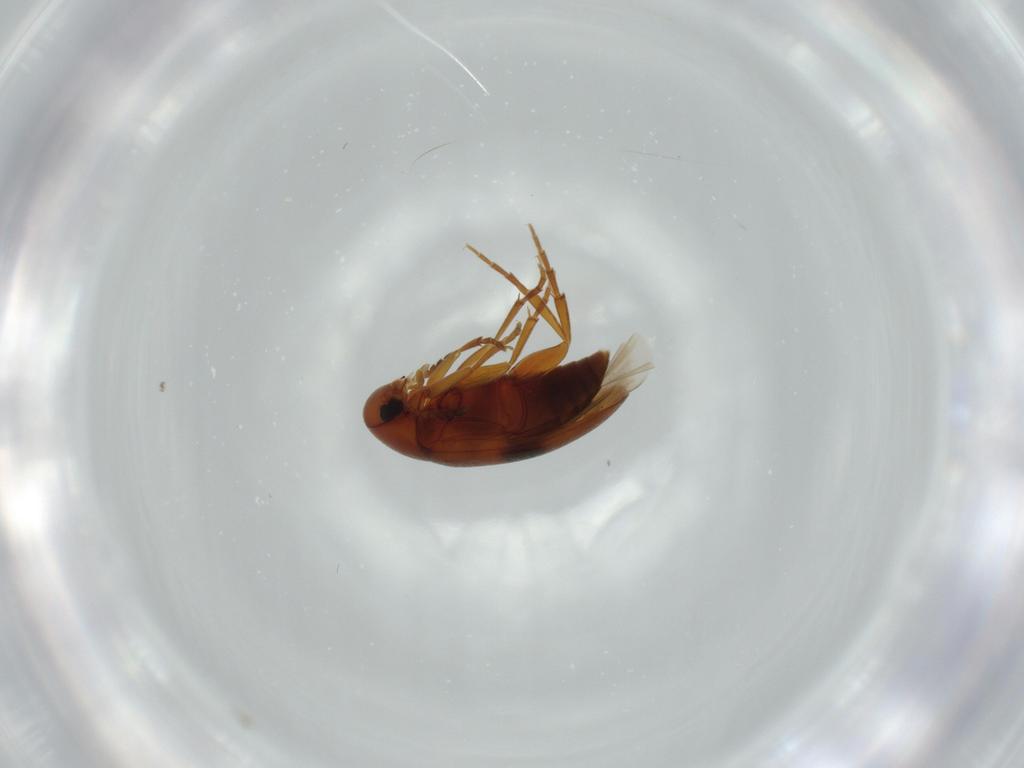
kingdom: Animalia
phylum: Arthropoda
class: Insecta
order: Coleoptera
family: Scraptiidae
